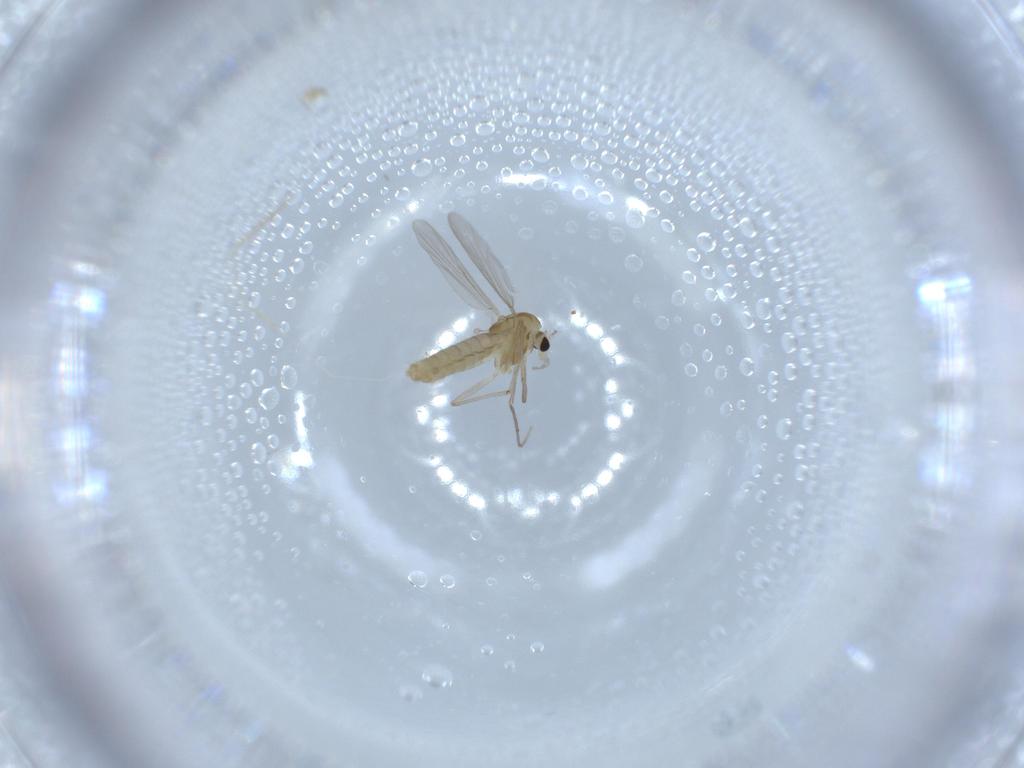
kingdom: Animalia
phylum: Arthropoda
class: Insecta
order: Diptera
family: Chironomidae
